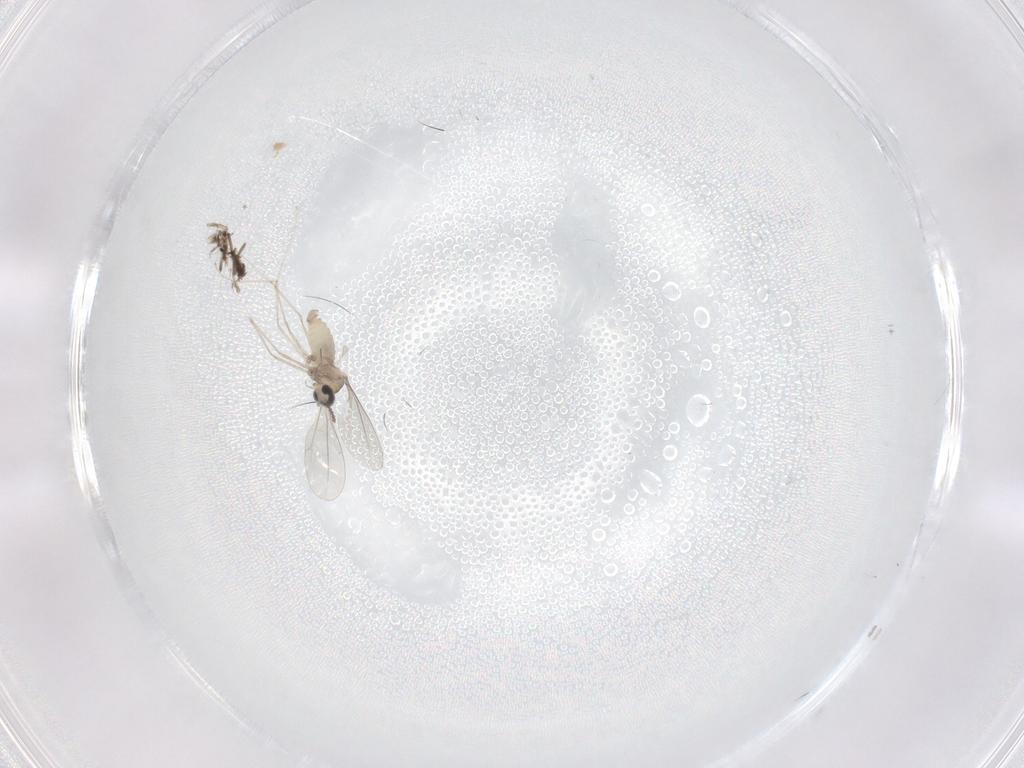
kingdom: Animalia
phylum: Arthropoda
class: Insecta
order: Diptera
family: Cecidomyiidae
